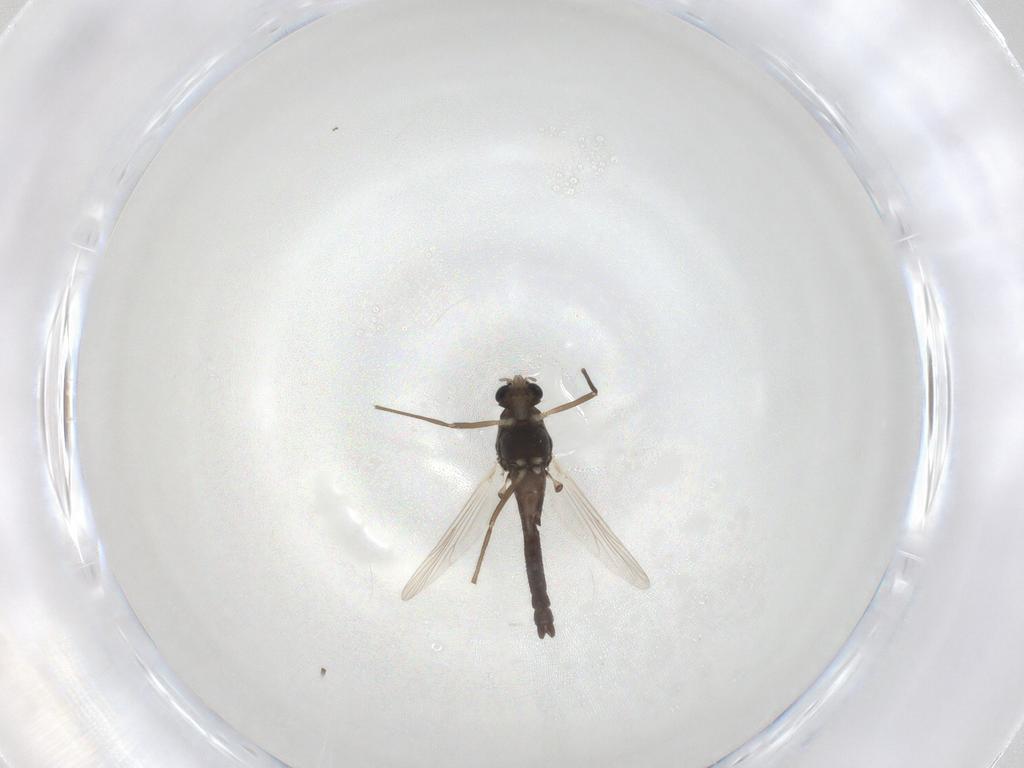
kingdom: Animalia
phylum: Arthropoda
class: Insecta
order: Diptera
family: Chironomidae
